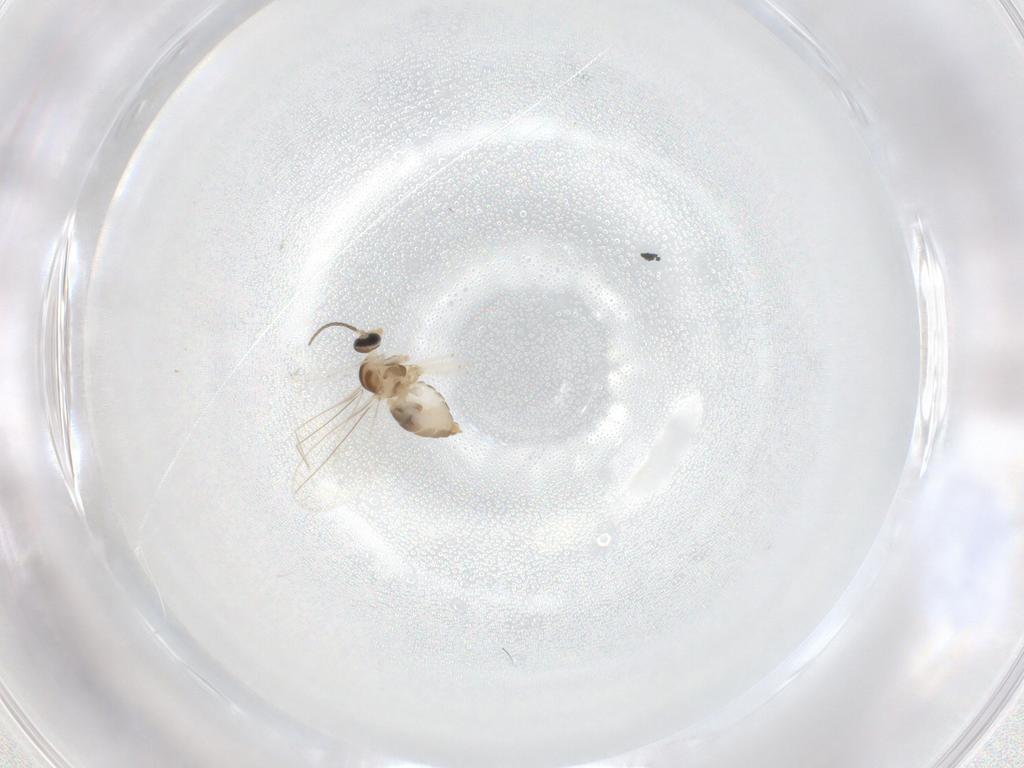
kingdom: Animalia
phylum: Arthropoda
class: Insecta
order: Diptera
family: Cecidomyiidae
